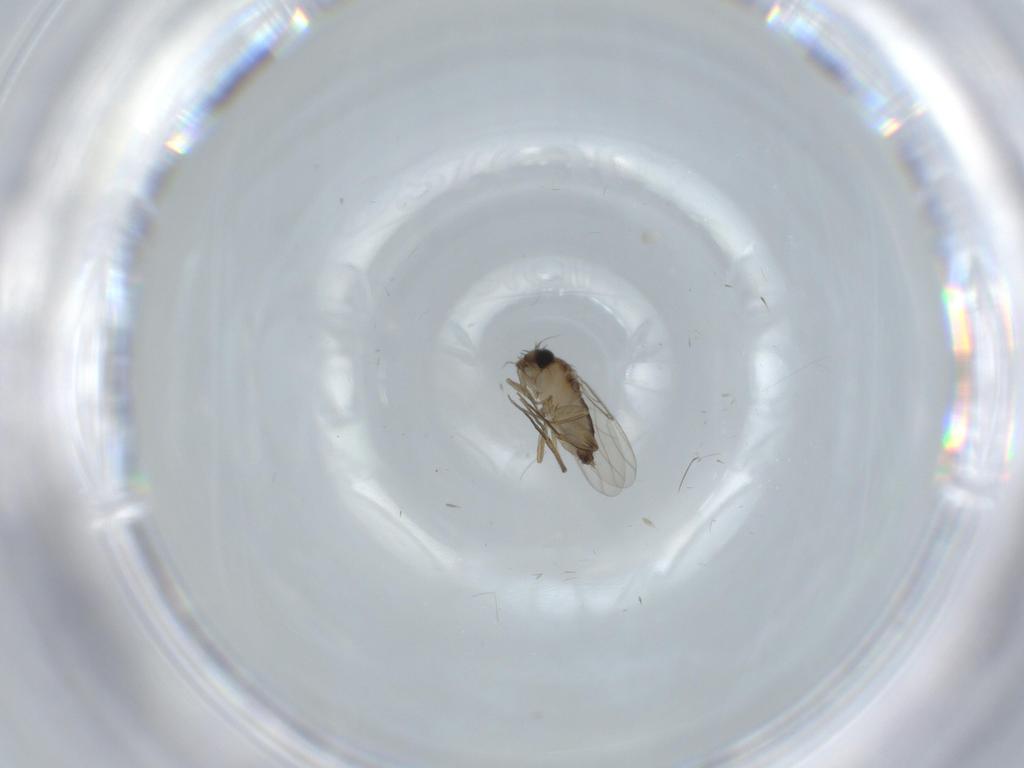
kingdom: Animalia
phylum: Arthropoda
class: Insecta
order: Diptera
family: Phoridae
